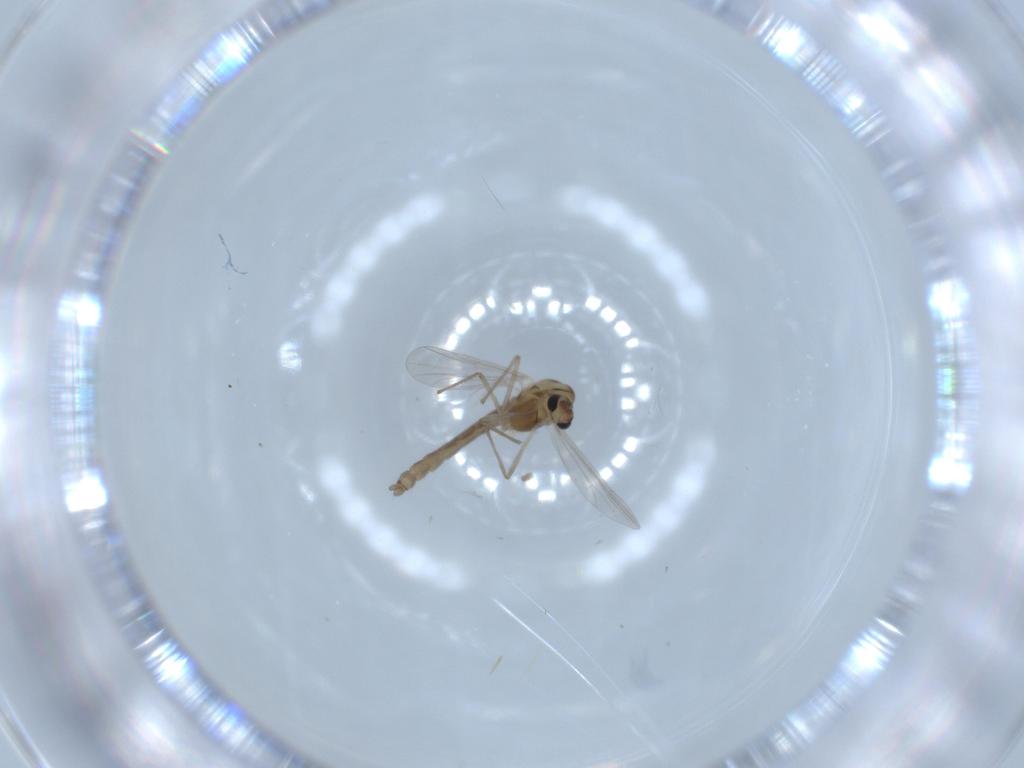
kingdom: Animalia
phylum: Arthropoda
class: Insecta
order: Diptera
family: Chironomidae
